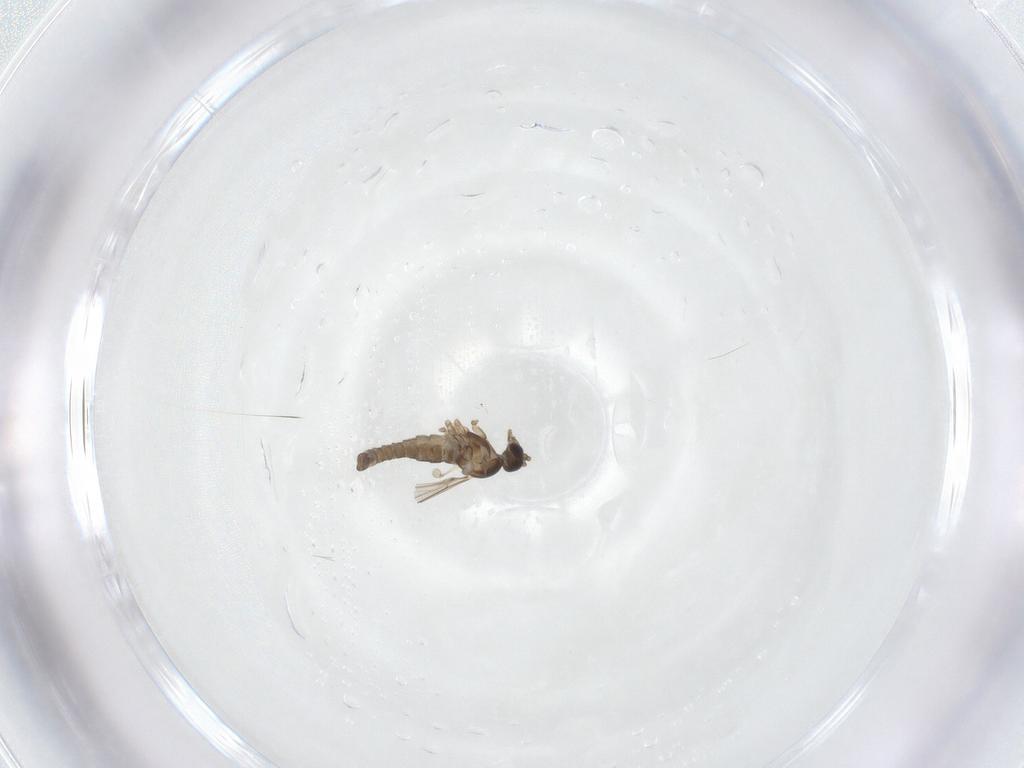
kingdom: Animalia
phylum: Arthropoda
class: Insecta
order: Diptera
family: Cecidomyiidae
